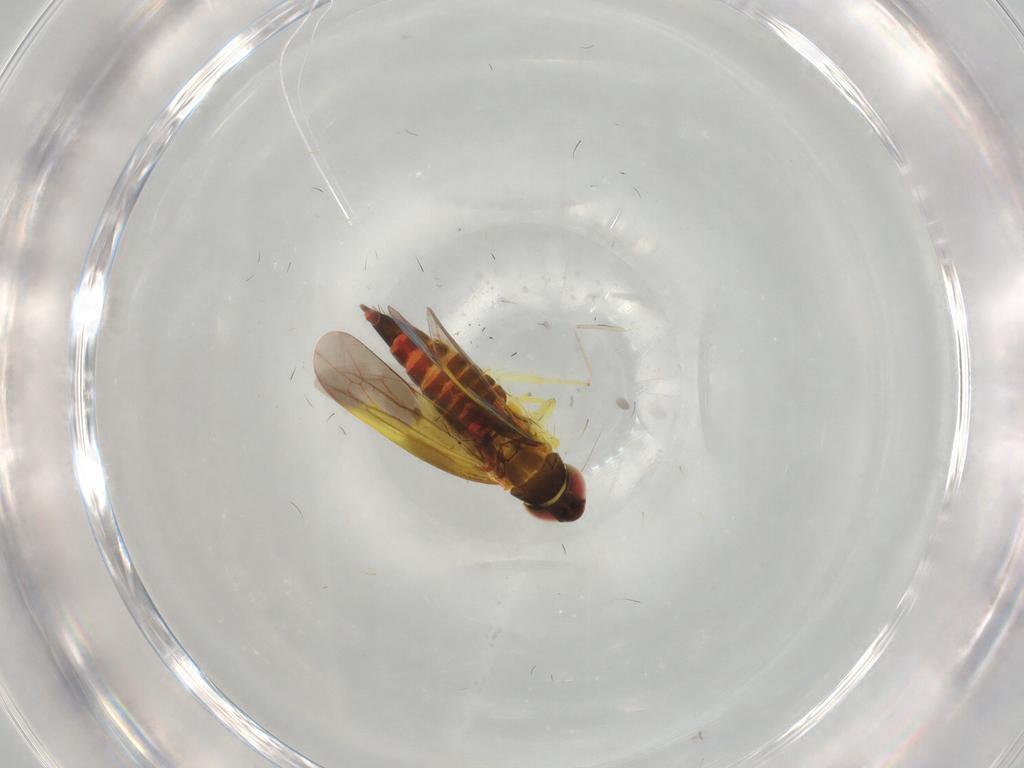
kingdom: Animalia
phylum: Arthropoda
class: Insecta
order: Hemiptera
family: Cicadellidae
